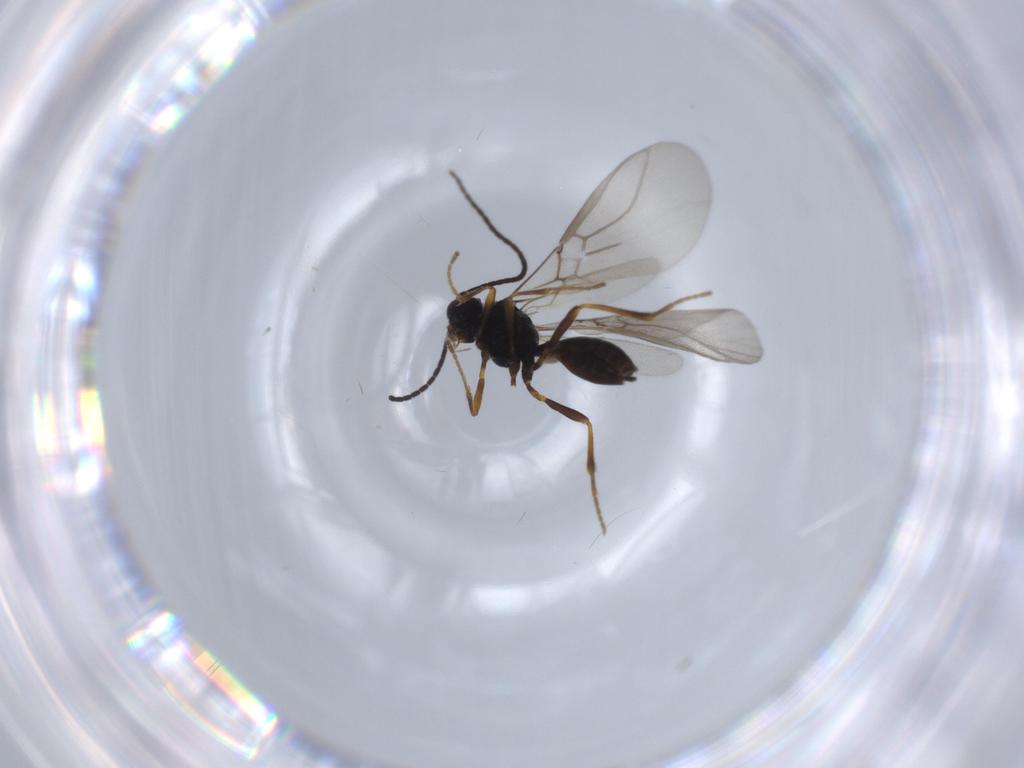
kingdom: Animalia
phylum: Arthropoda
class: Insecta
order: Hymenoptera
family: Braconidae
